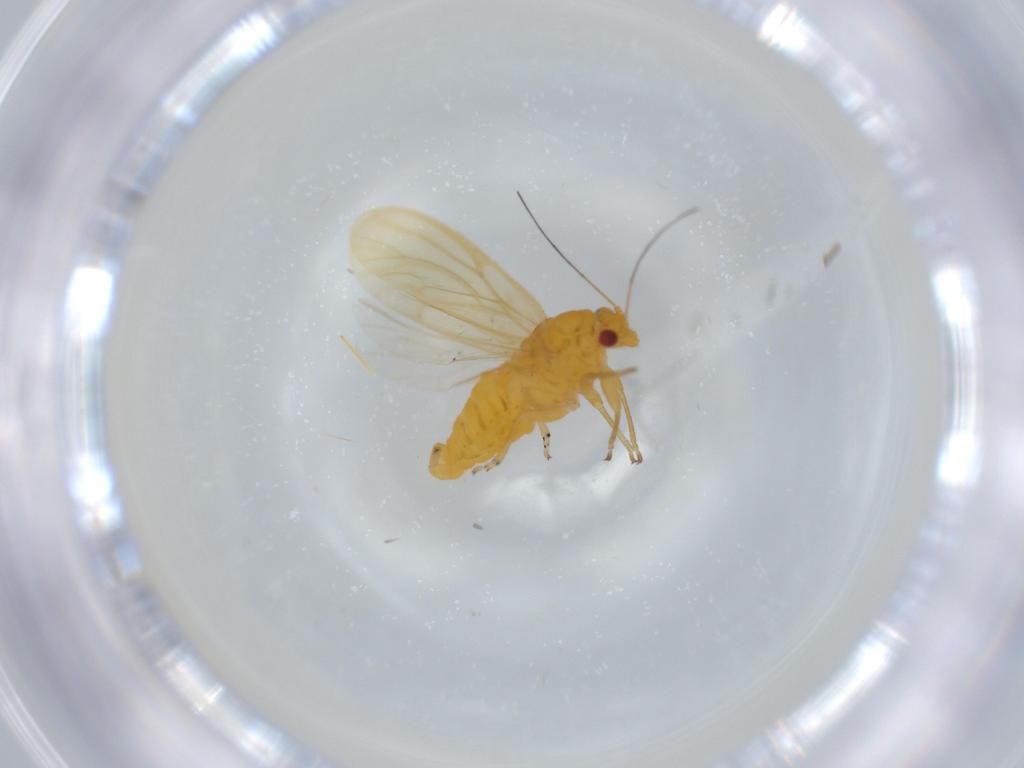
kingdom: Animalia
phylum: Arthropoda
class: Insecta
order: Hemiptera
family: Psyllidae
